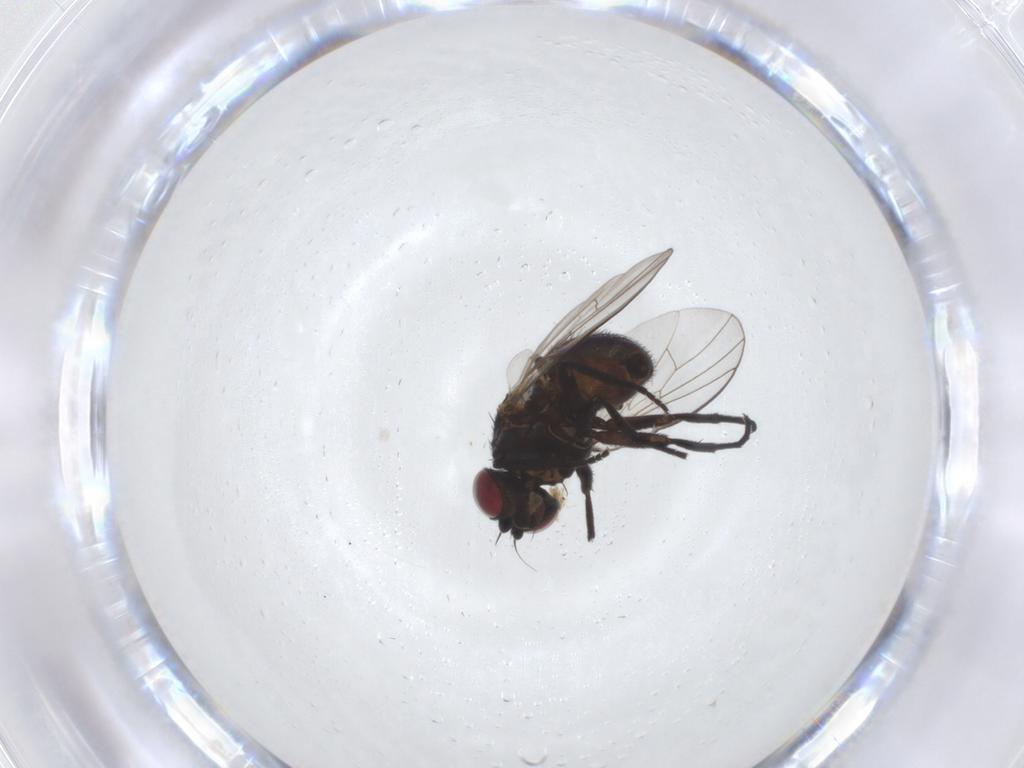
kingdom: Animalia
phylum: Arthropoda
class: Insecta
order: Diptera
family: Agromyzidae
